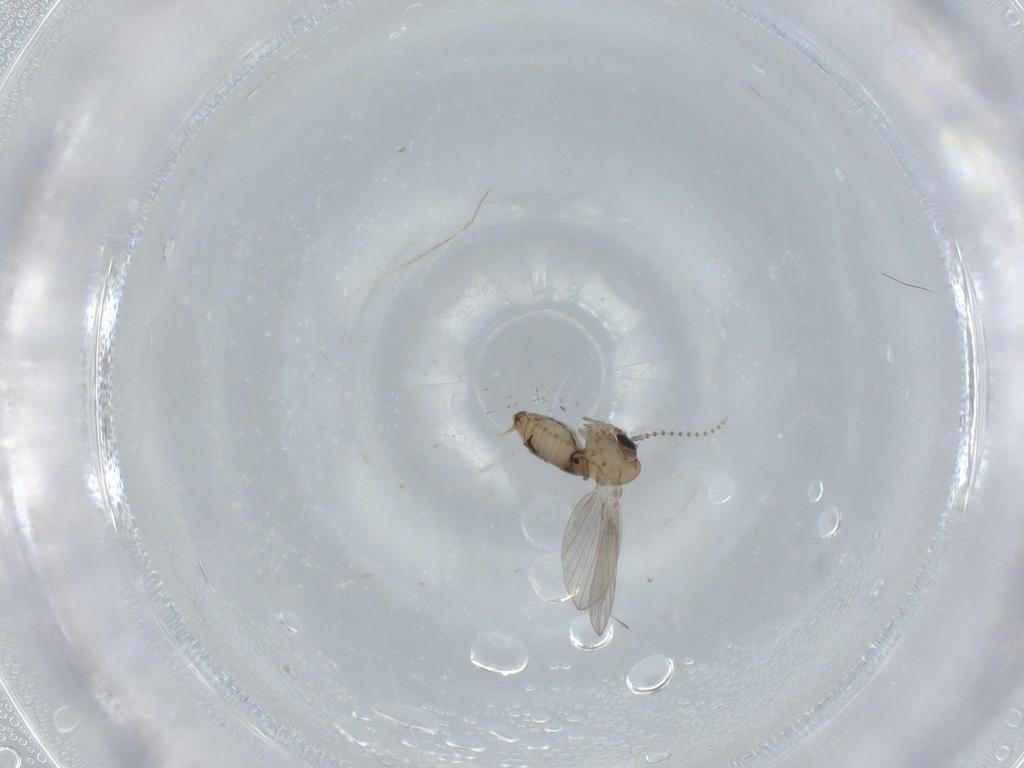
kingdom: Animalia
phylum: Arthropoda
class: Insecta
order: Diptera
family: Psychodidae
